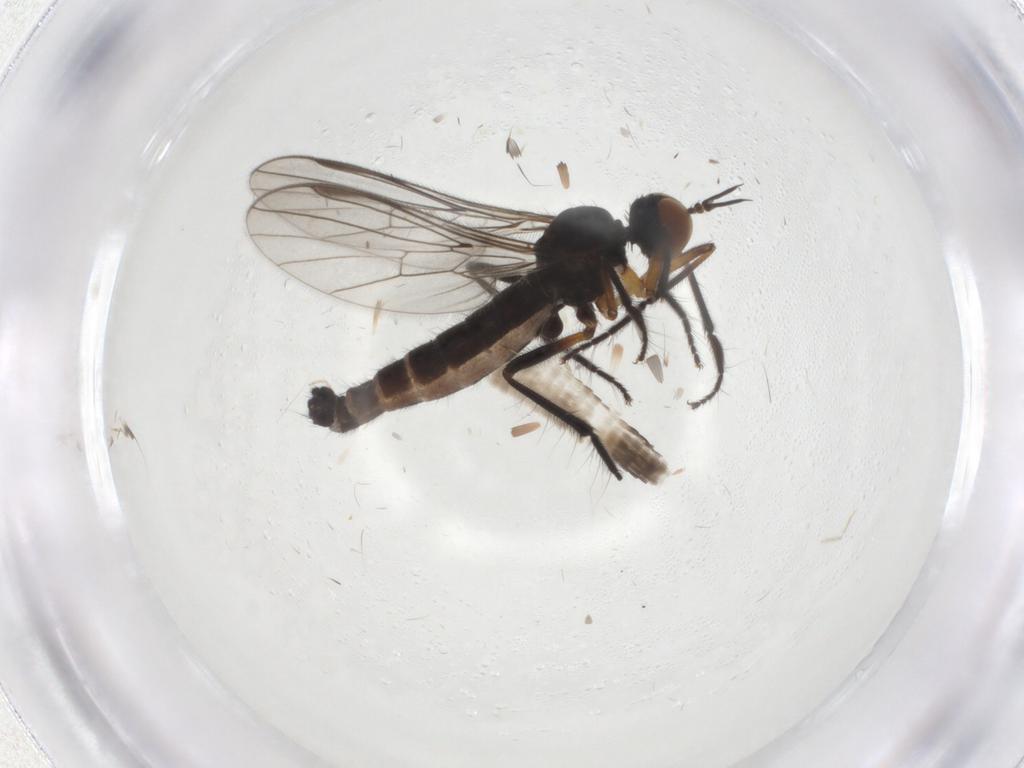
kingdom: Animalia
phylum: Arthropoda
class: Insecta
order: Diptera
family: Empididae
